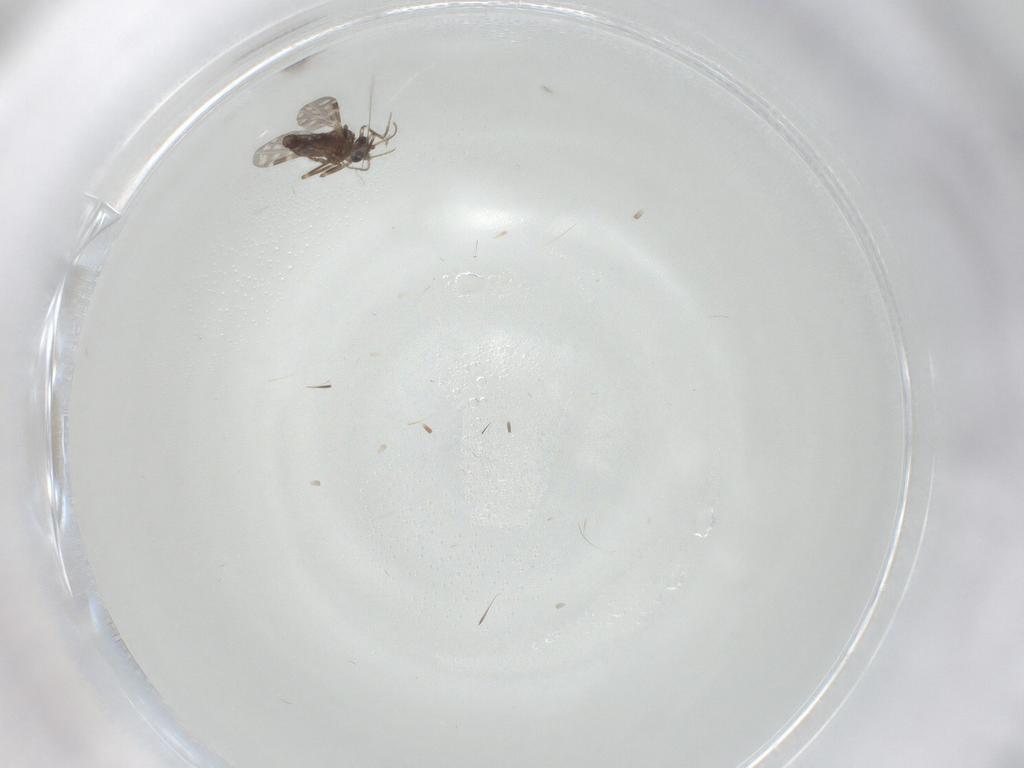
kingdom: Animalia
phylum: Arthropoda
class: Insecta
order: Diptera
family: Ceratopogonidae
